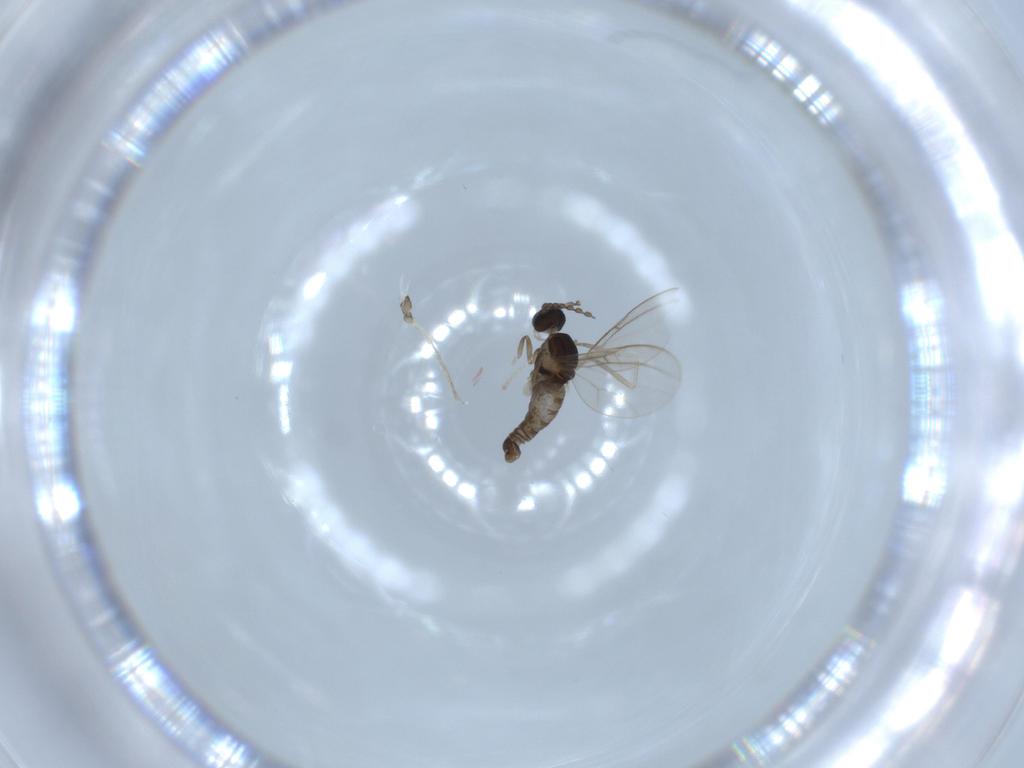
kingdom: Animalia
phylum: Arthropoda
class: Insecta
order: Diptera
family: Cecidomyiidae
